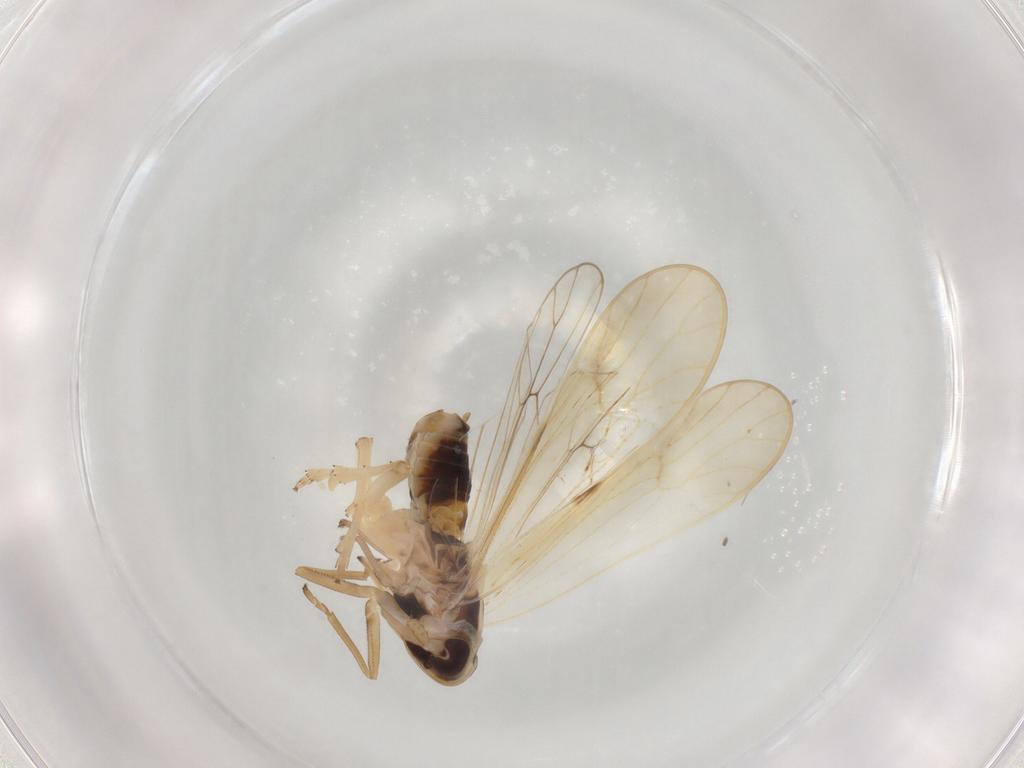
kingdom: Animalia
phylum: Arthropoda
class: Insecta
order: Hemiptera
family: Delphacidae
